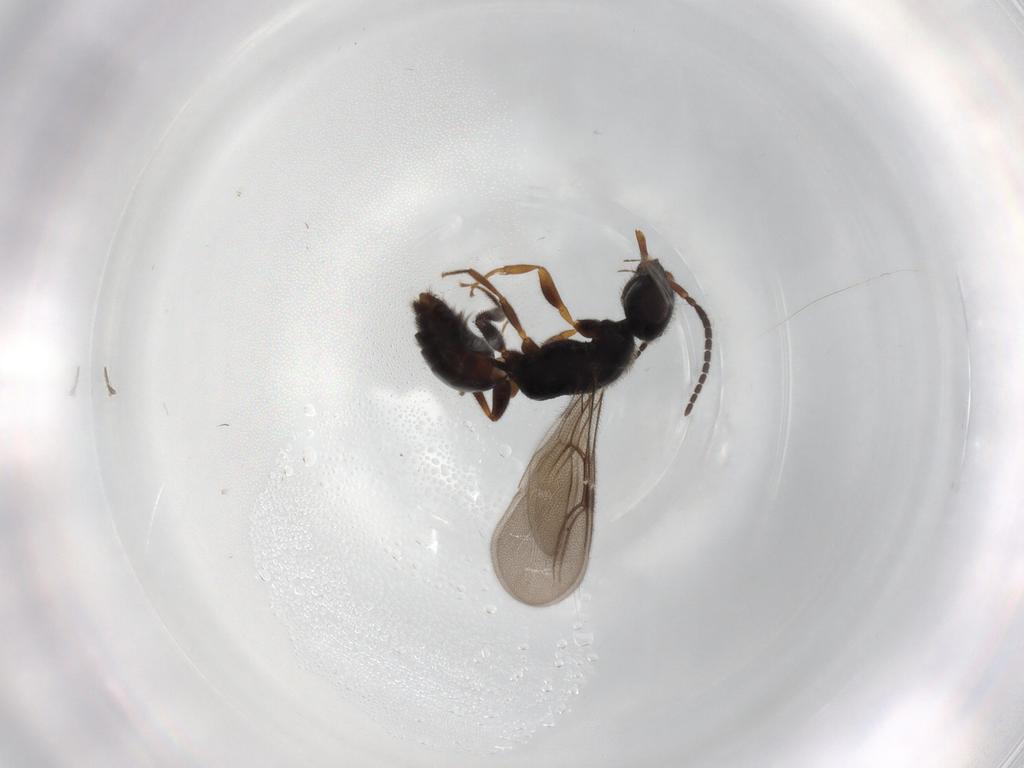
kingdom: Animalia
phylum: Arthropoda
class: Insecta
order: Hymenoptera
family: Bethylidae
